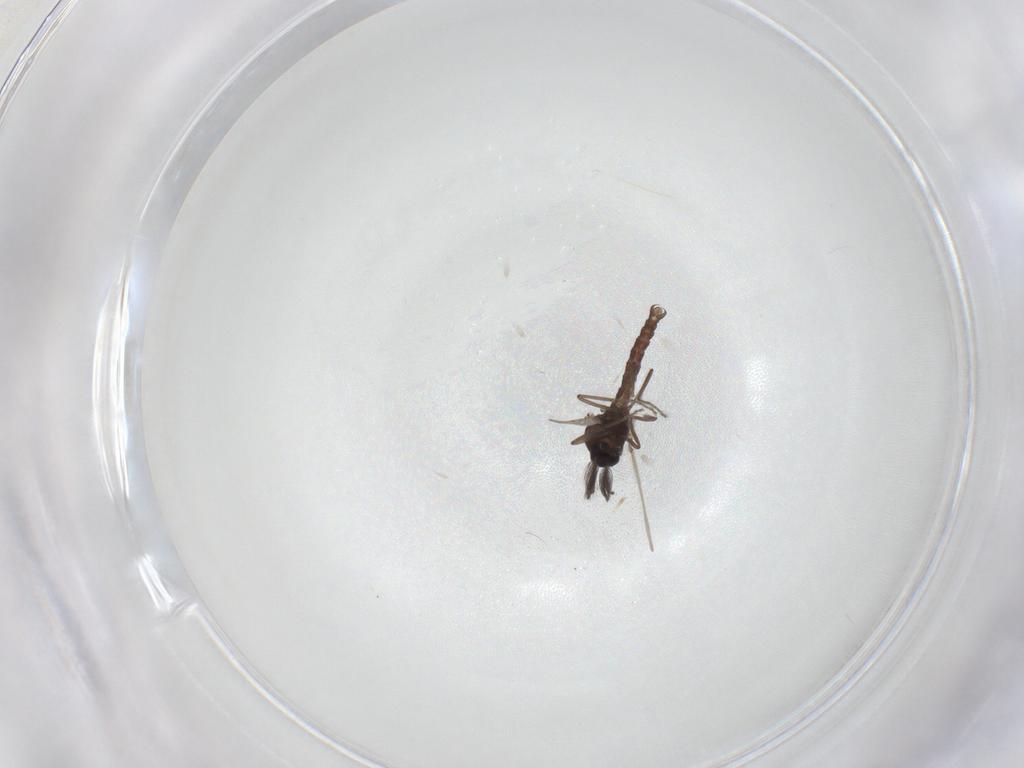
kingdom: Animalia
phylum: Arthropoda
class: Insecta
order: Diptera
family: Ceratopogonidae
